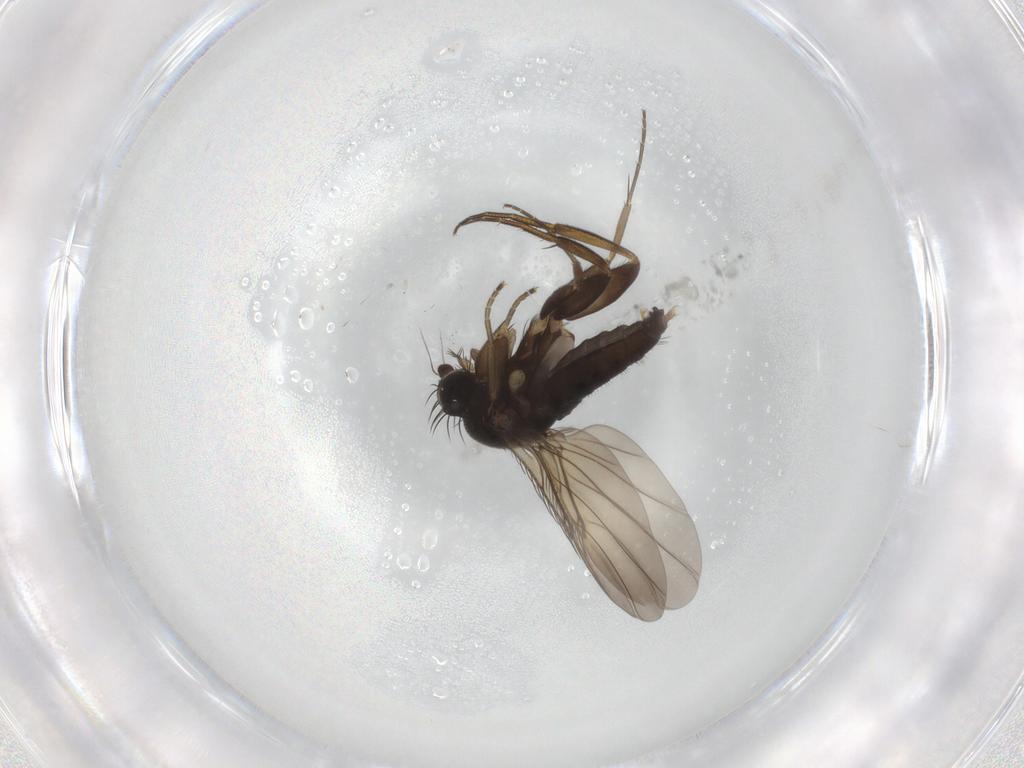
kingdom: Animalia
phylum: Arthropoda
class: Insecta
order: Diptera
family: Phoridae
